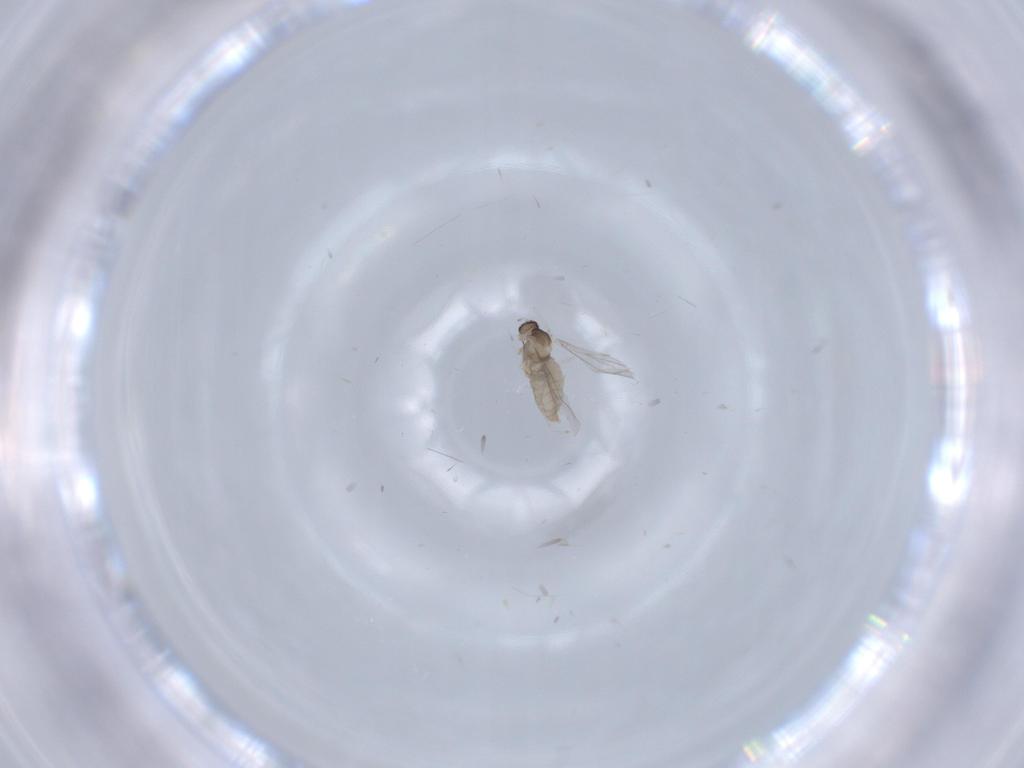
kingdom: Animalia
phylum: Arthropoda
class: Insecta
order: Diptera
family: Cecidomyiidae
